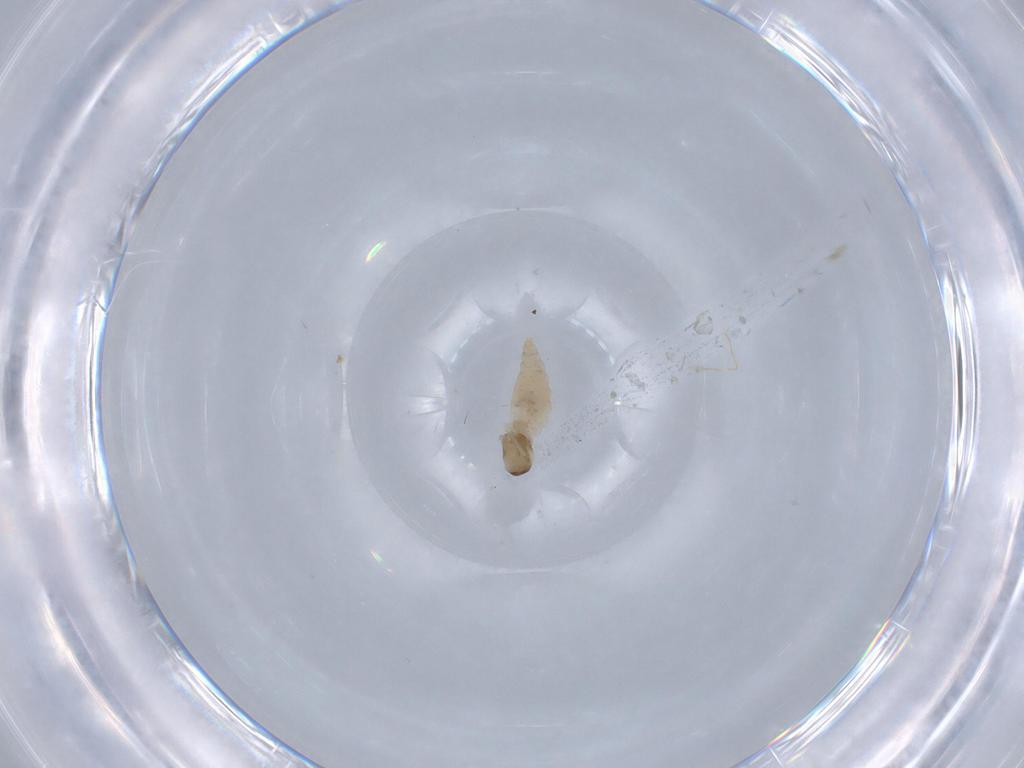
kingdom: Animalia
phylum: Arthropoda
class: Insecta
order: Diptera
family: Cecidomyiidae
